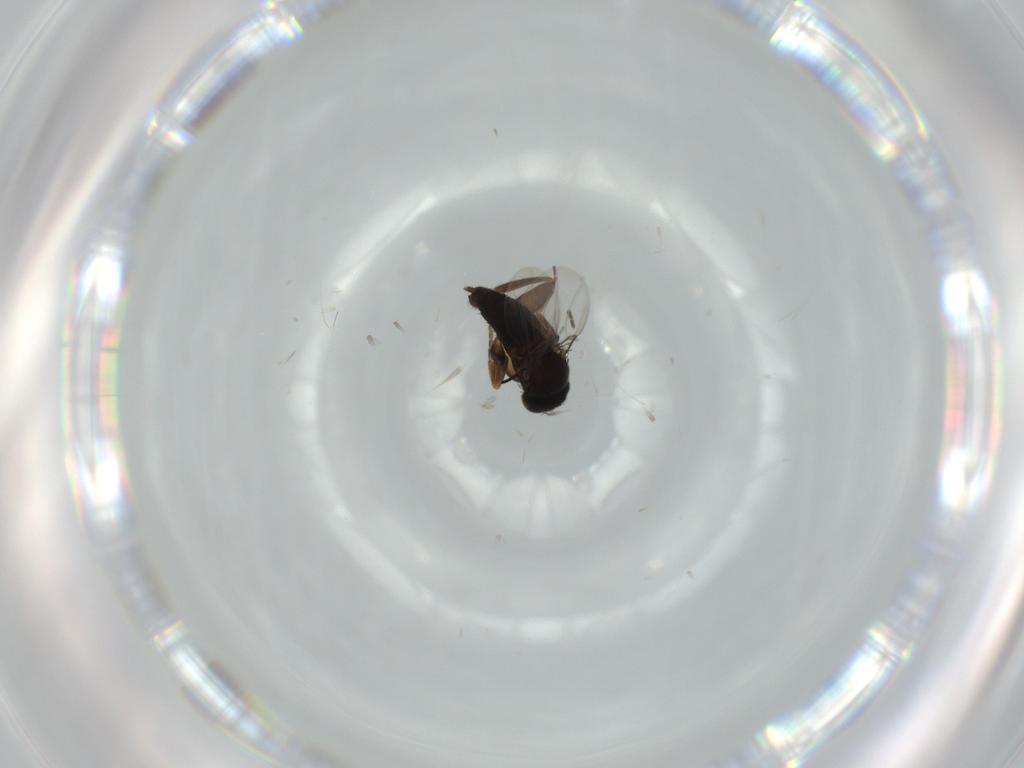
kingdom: Animalia
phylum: Arthropoda
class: Insecta
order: Diptera
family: Phoridae
